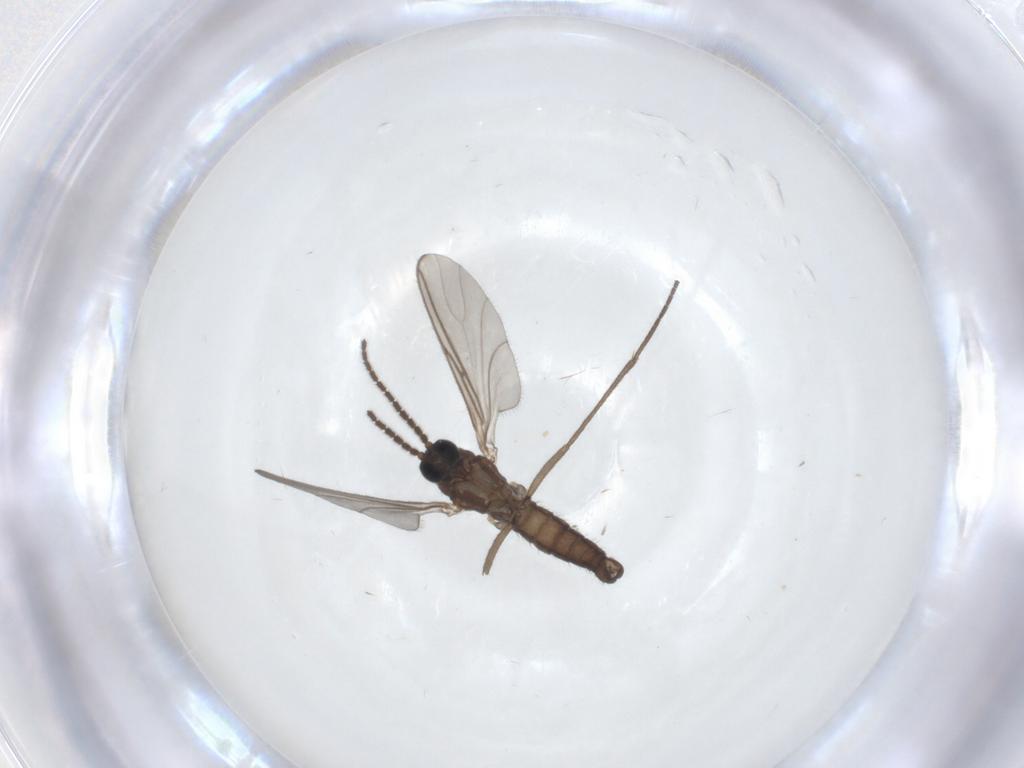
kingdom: Animalia
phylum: Arthropoda
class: Insecta
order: Diptera
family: Sciaridae
